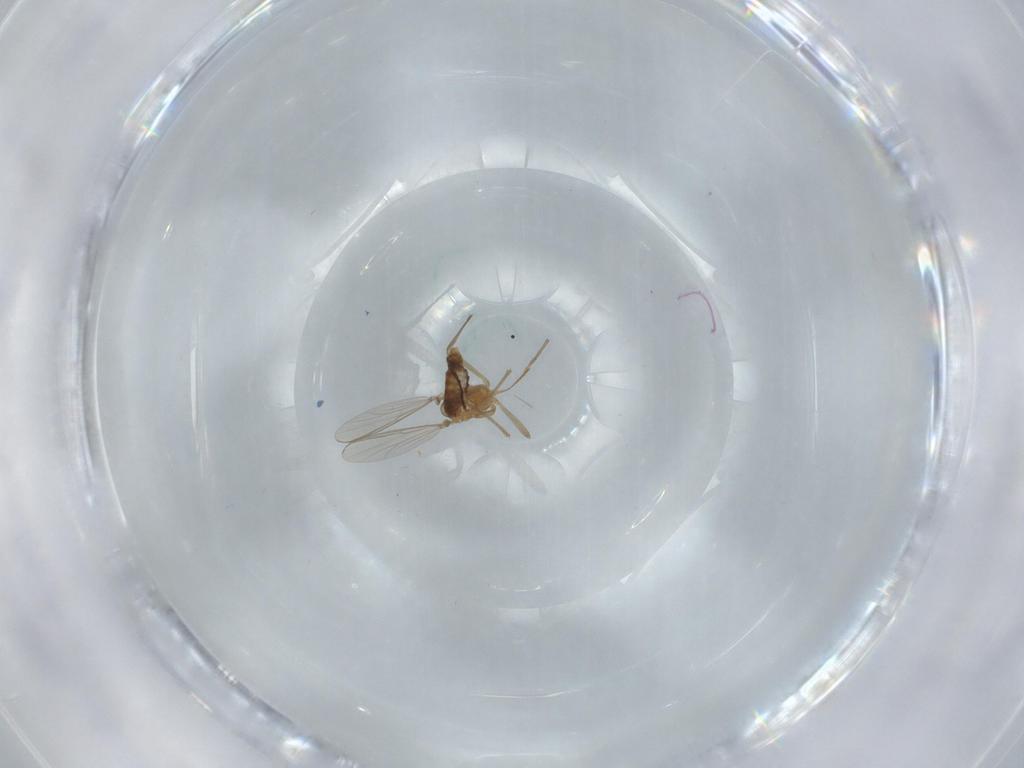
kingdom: Animalia
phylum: Arthropoda
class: Insecta
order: Diptera
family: Chironomidae
